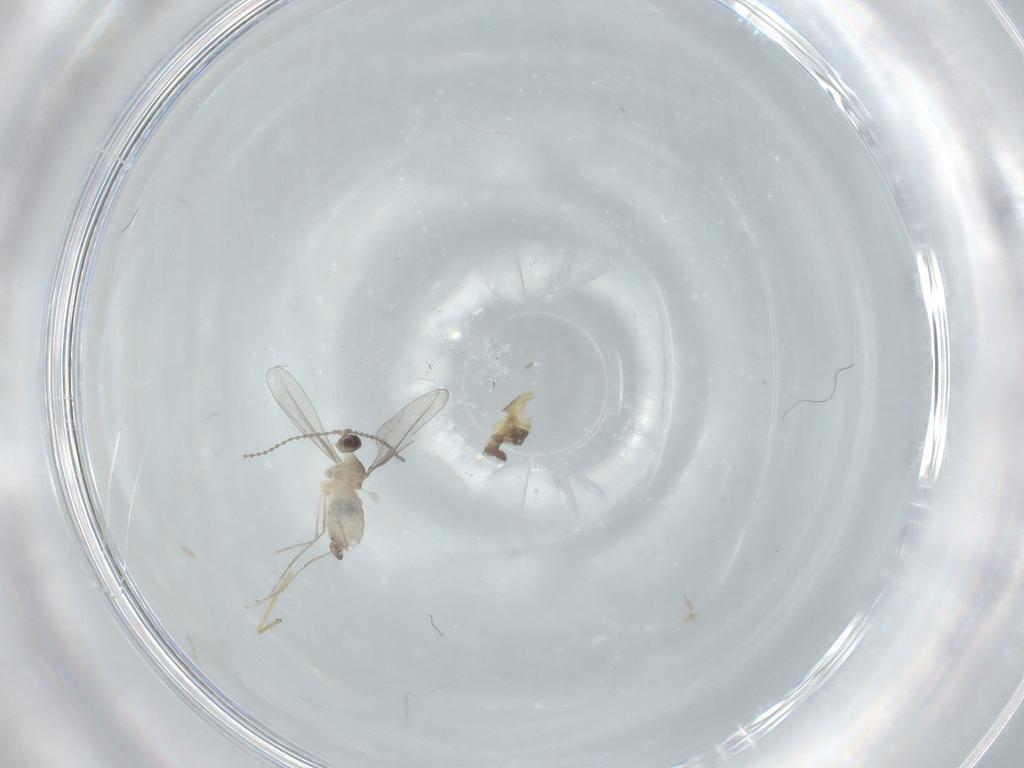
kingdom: Animalia
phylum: Arthropoda
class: Insecta
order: Diptera
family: Cecidomyiidae
